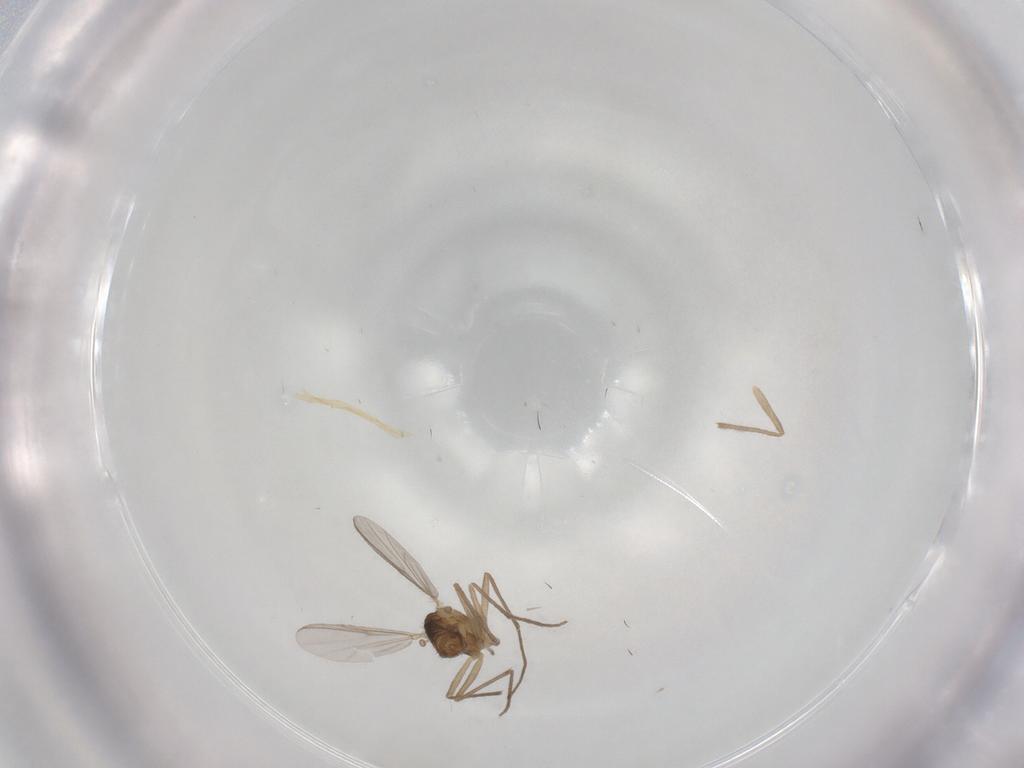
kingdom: Animalia
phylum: Arthropoda
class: Insecta
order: Diptera
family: Chironomidae
